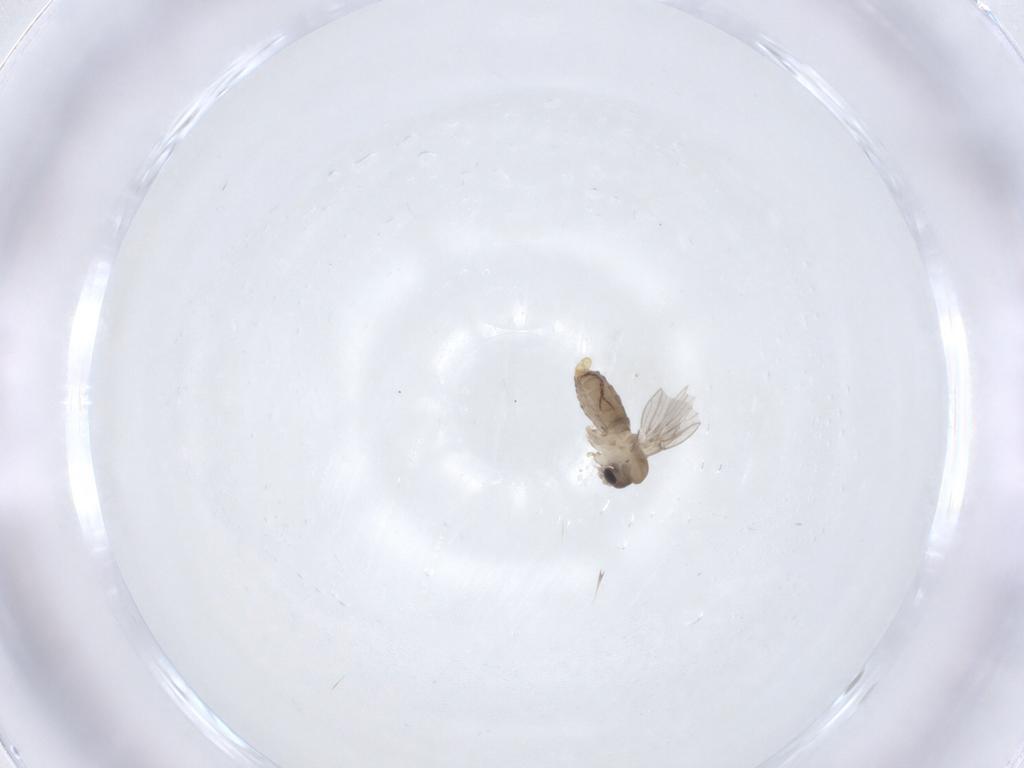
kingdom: Animalia
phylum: Arthropoda
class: Insecta
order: Diptera
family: Psychodidae
